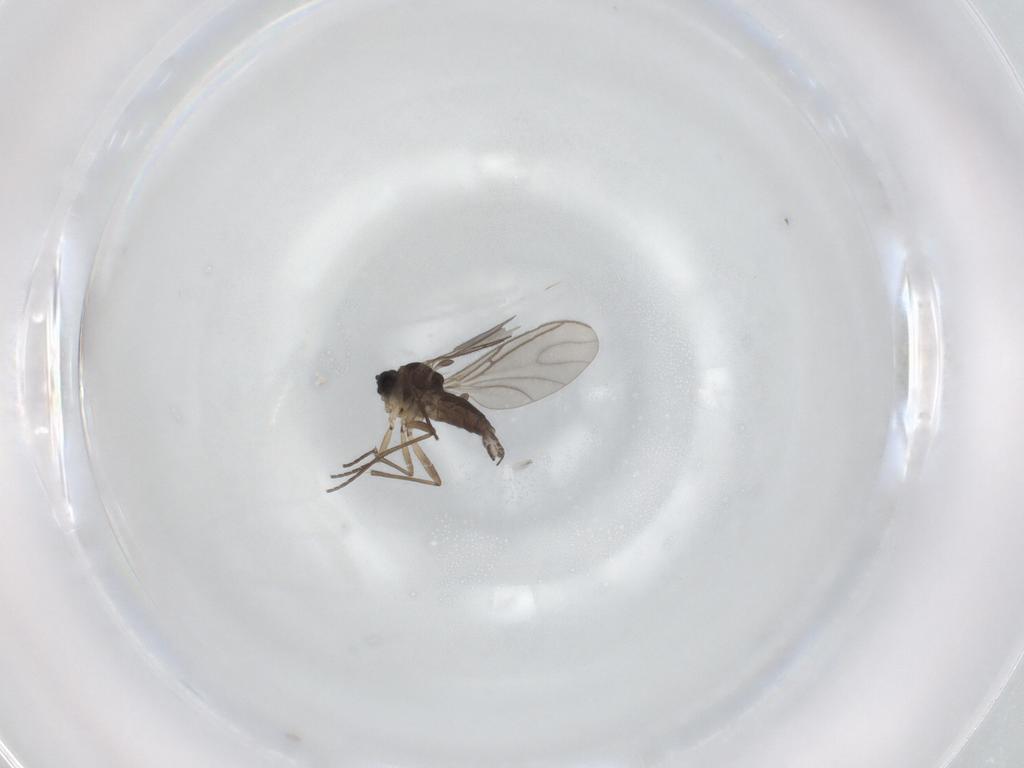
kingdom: Animalia
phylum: Arthropoda
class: Insecta
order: Diptera
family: Sciaridae
